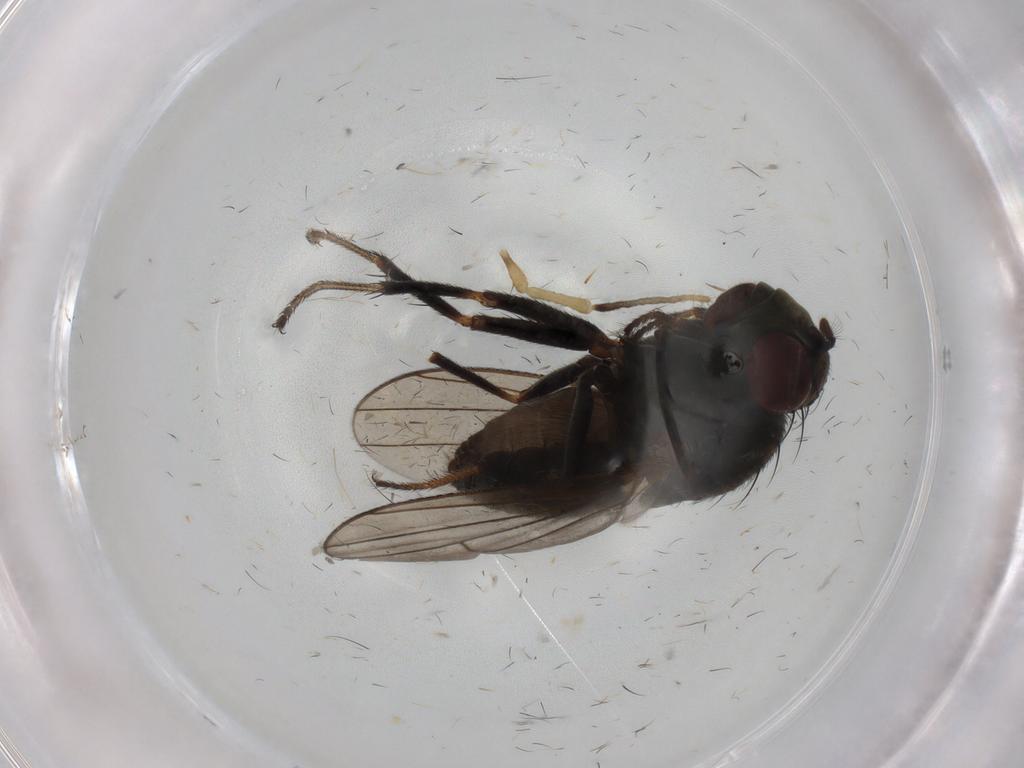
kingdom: Animalia
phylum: Arthropoda
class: Insecta
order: Diptera
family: Ephydridae
